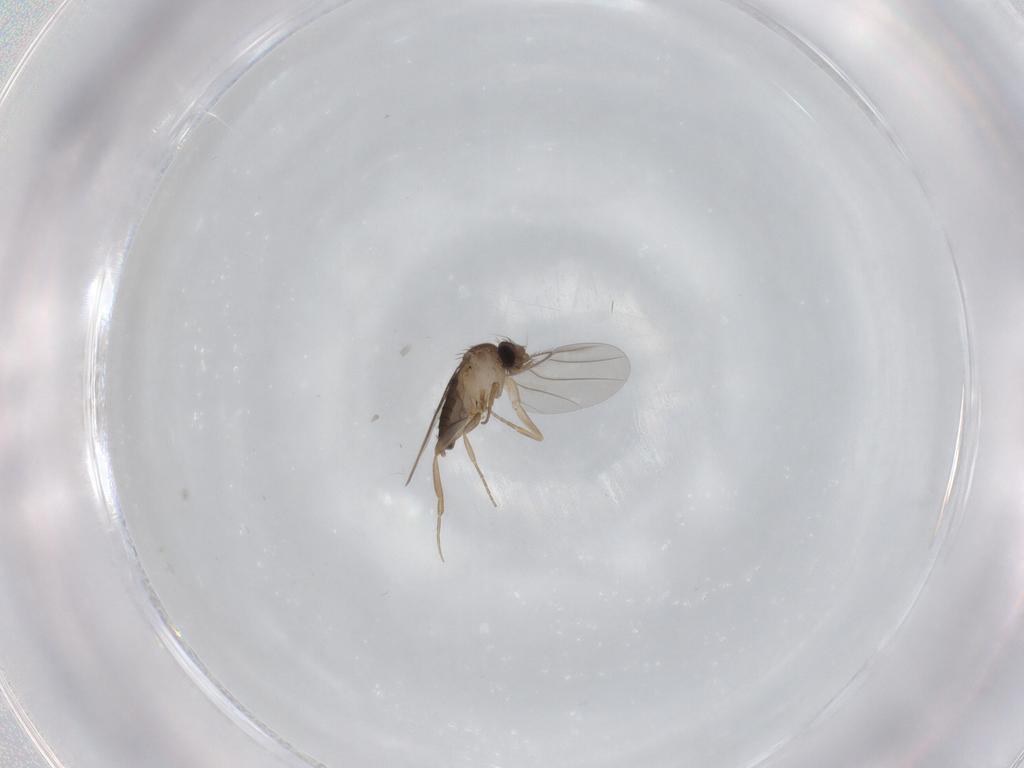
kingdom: Animalia
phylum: Arthropoda
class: Insecta
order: Diptera
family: Phoridae
